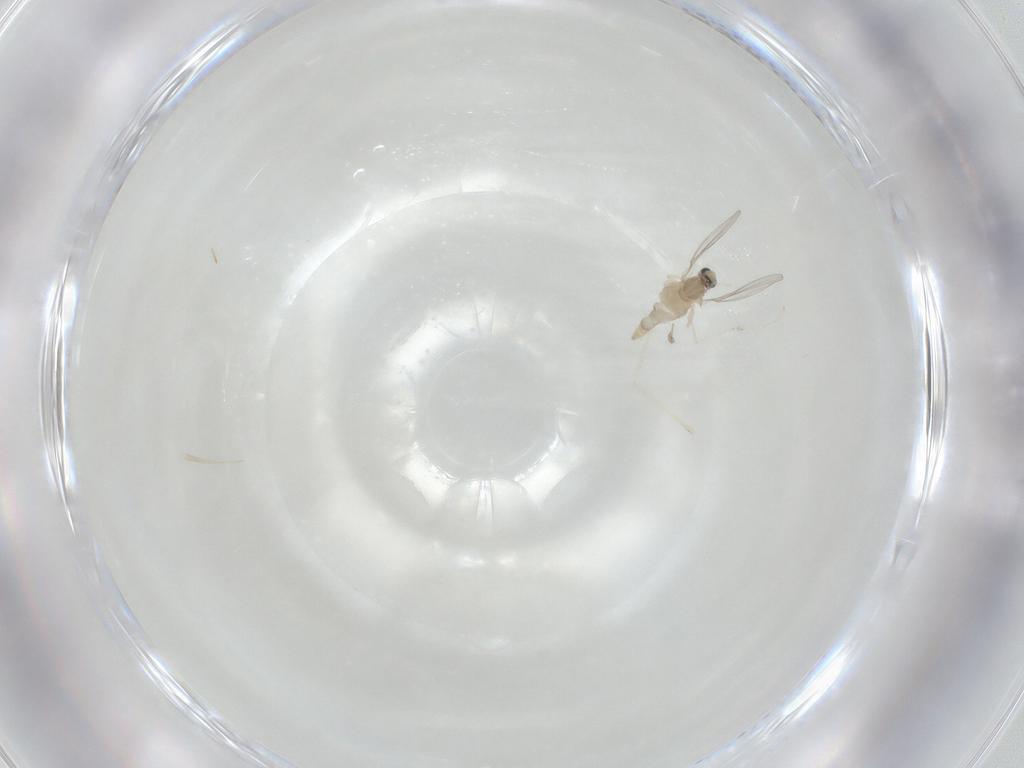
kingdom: Animalia
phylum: Arthropoda
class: Insecta
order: Diptera
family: Cecidomyiidae
